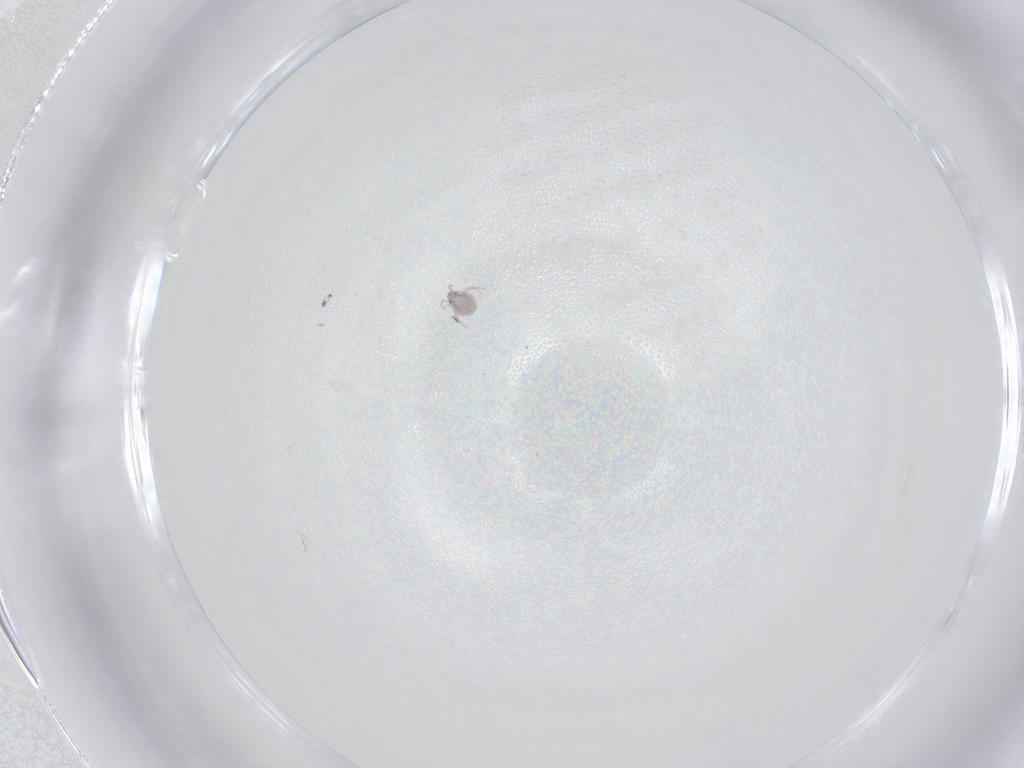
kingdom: Animalia
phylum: Arthropoda
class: Arachnida
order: Trombidiformes
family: Pionidae
